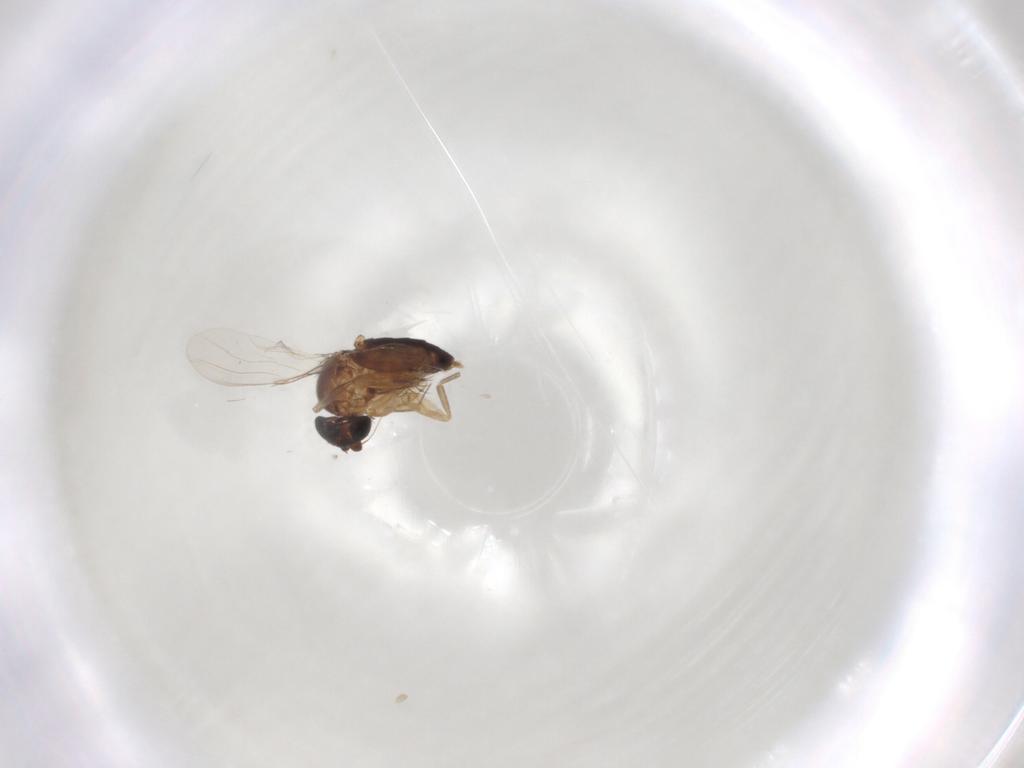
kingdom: Animalia
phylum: Arthropoda
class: Insecta
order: Diptera
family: Phoridae
